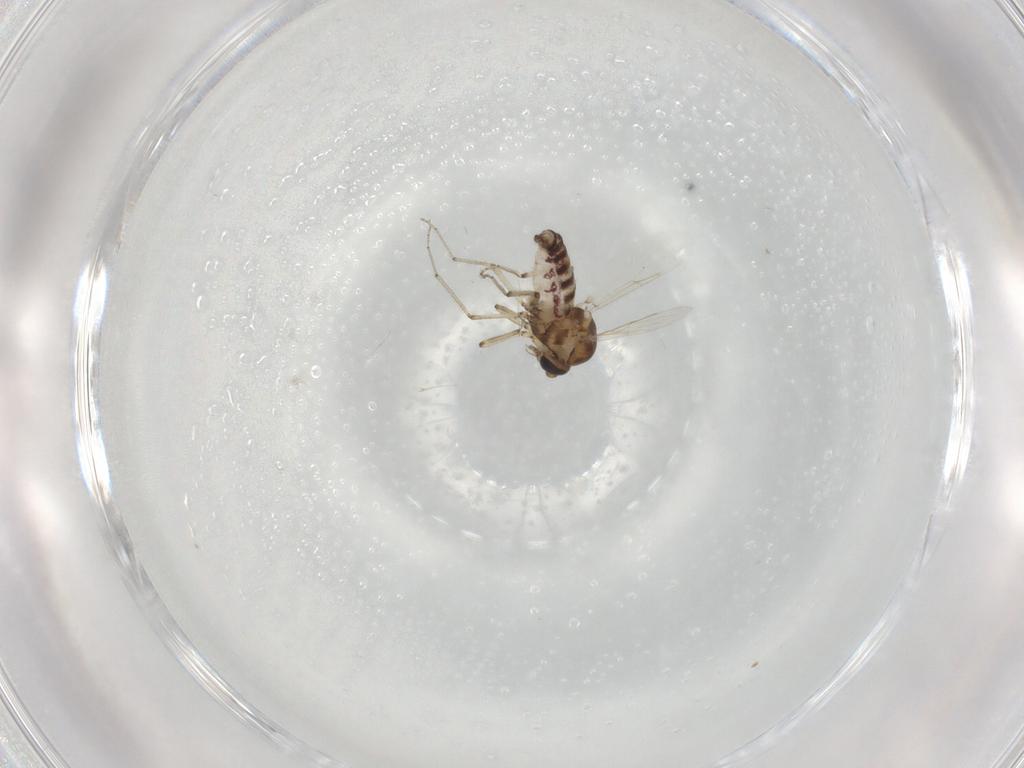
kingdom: Animalia
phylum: Arthropoda
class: Insecta
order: Diptera
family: Ceratopogonidae
